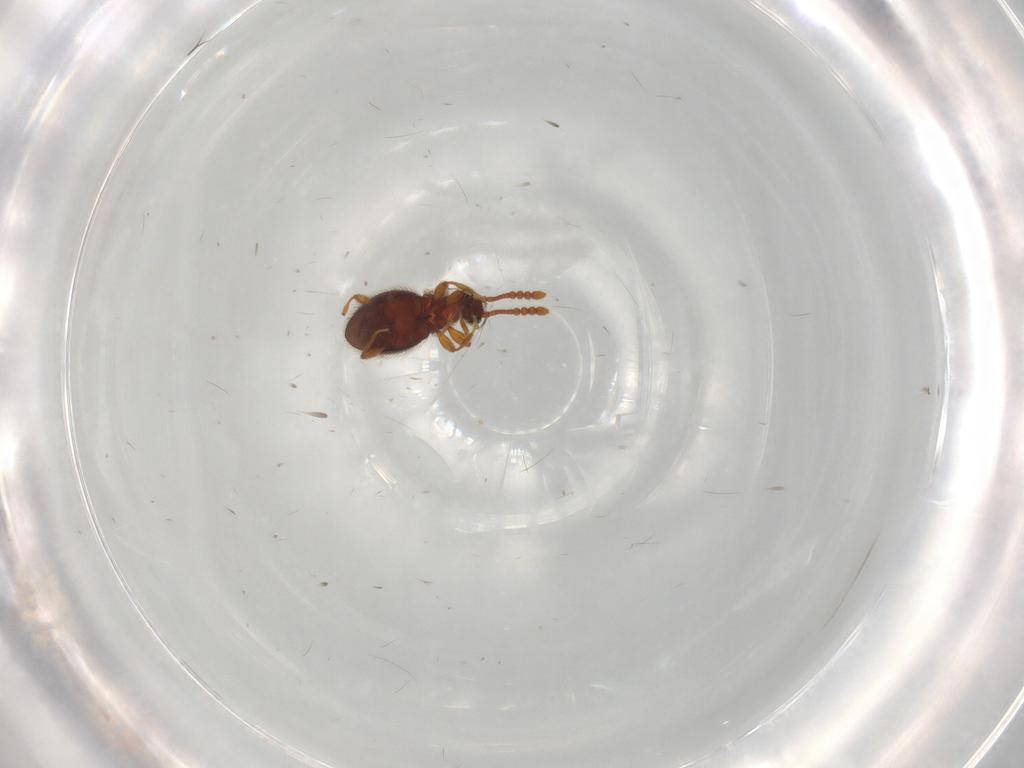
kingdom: Animalia
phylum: Arthropoda
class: Insecta
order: Coleoptera
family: Staphylinidae
